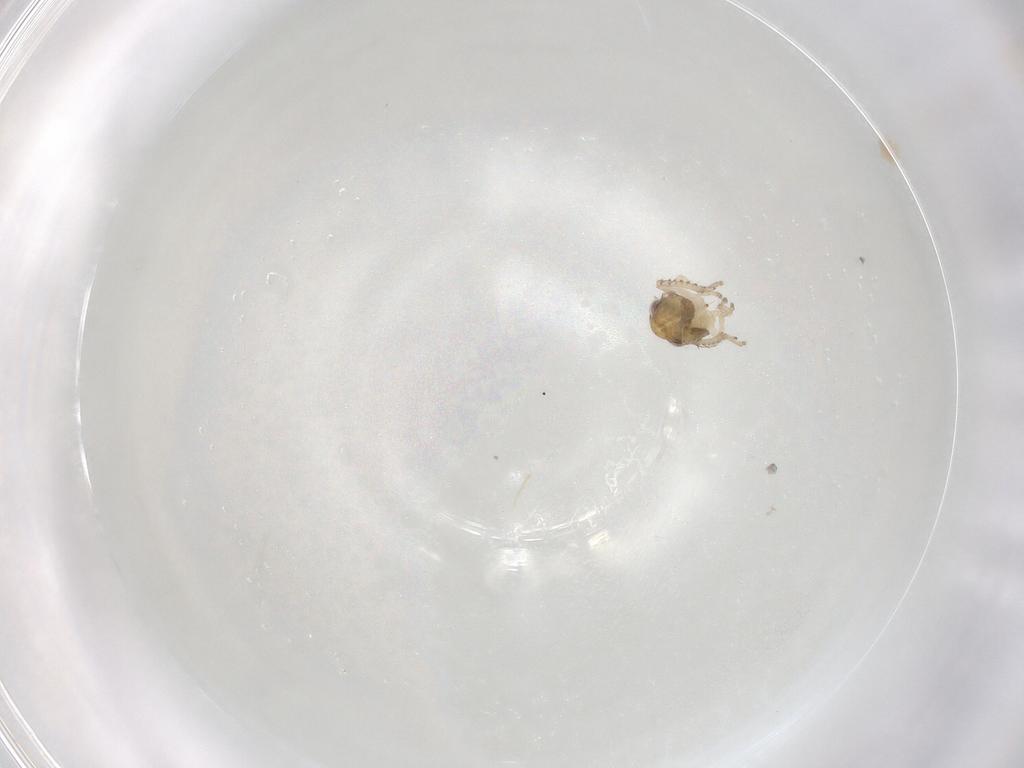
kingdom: Animalia
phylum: Arthropoda
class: Insecta
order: Hemiptera
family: Cicadellidae
